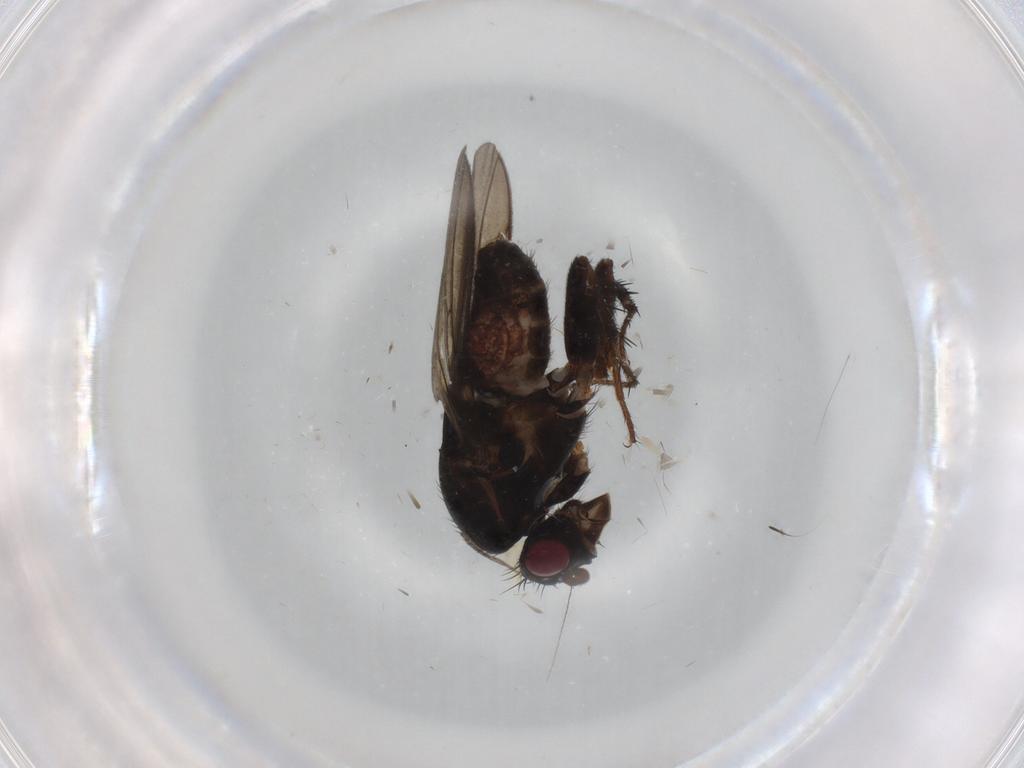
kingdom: Animalia
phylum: Arthropoda
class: Insecta
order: Diptera
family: Sphaeroceridae
